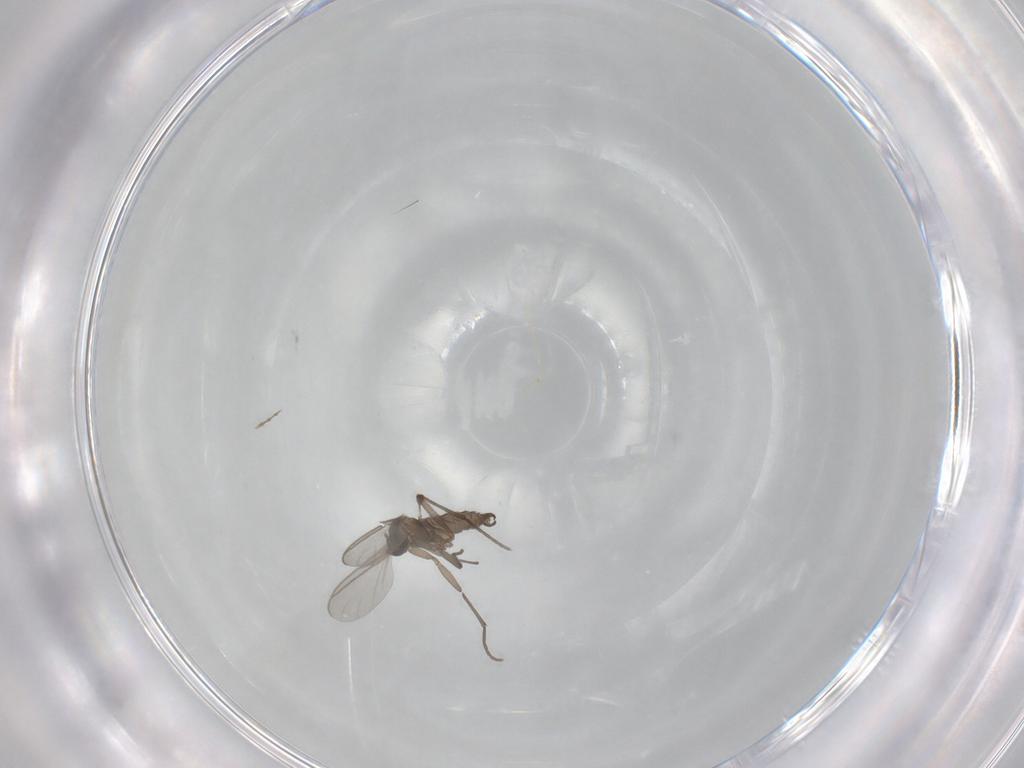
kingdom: Animalia
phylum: Arthropoda
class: Insecta
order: Diptera
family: Sciaridae
